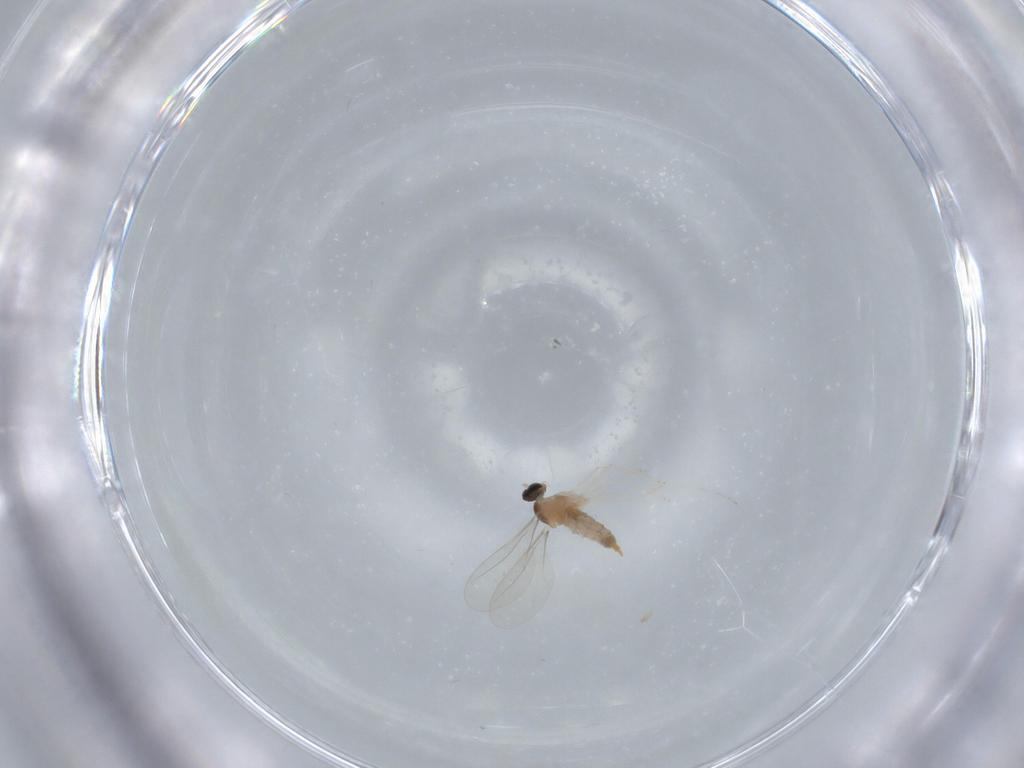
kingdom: Animalia
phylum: Arthropoda
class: Insecta
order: Diptera
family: Cecidomyiidae
